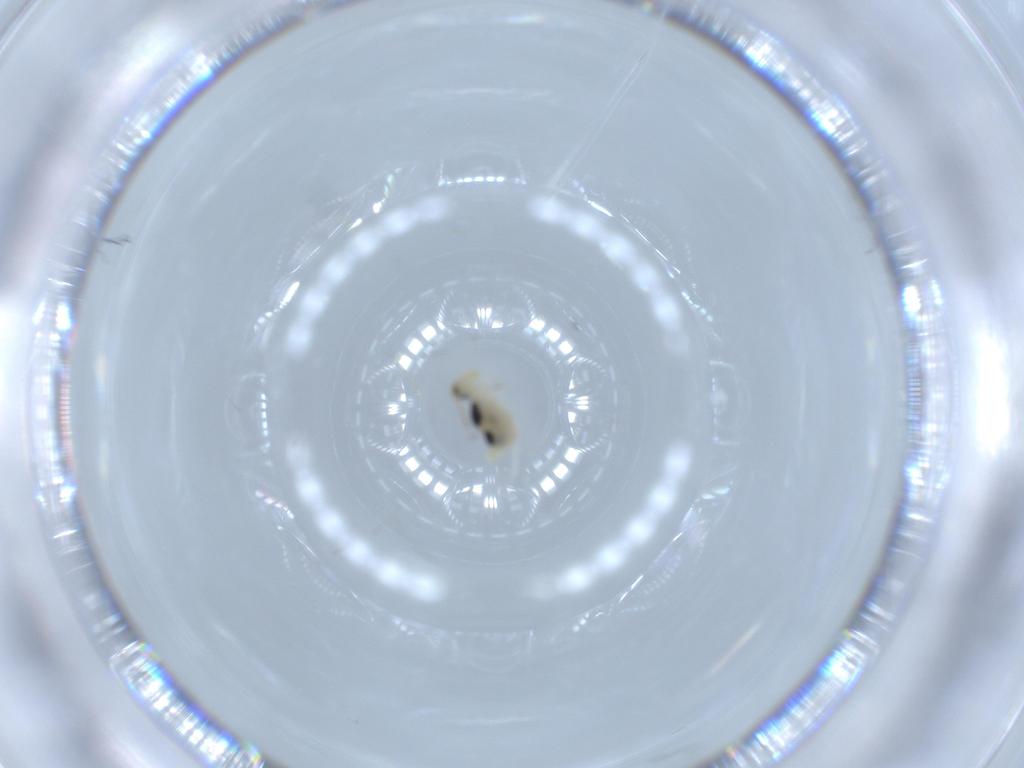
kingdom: Animalia
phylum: Arthropoda
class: Collembola
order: Symphypleona
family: Bourletiellidae
